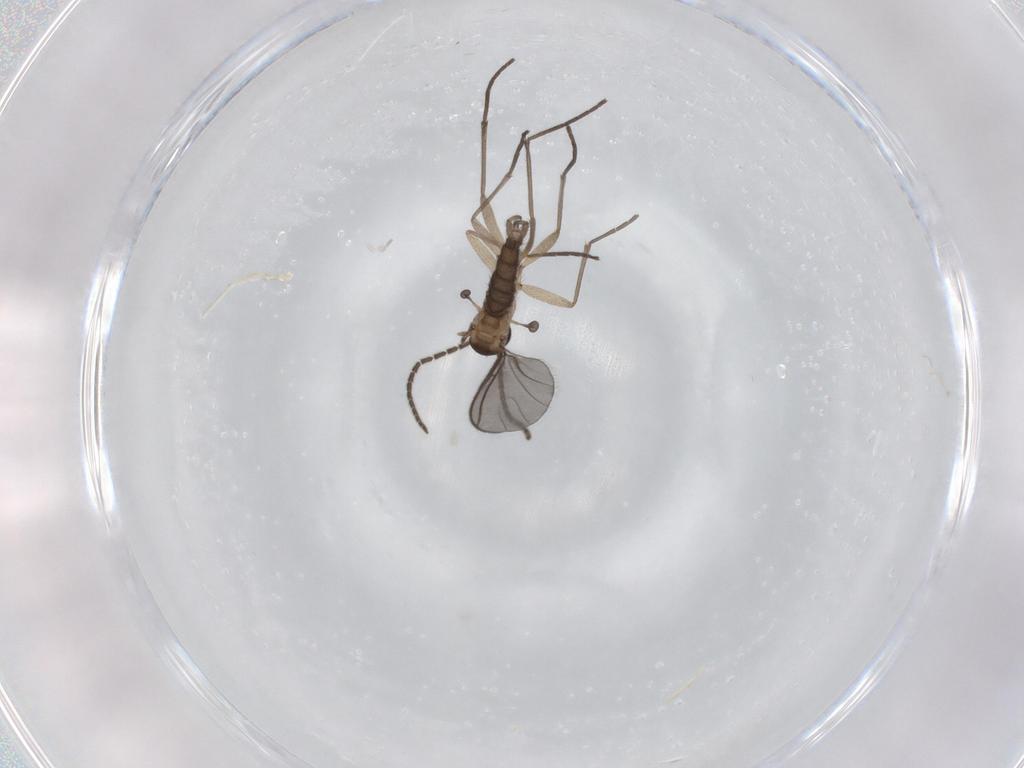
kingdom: Animalia
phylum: Arthropoda
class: Insecta
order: Diptera
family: Sciaridae
